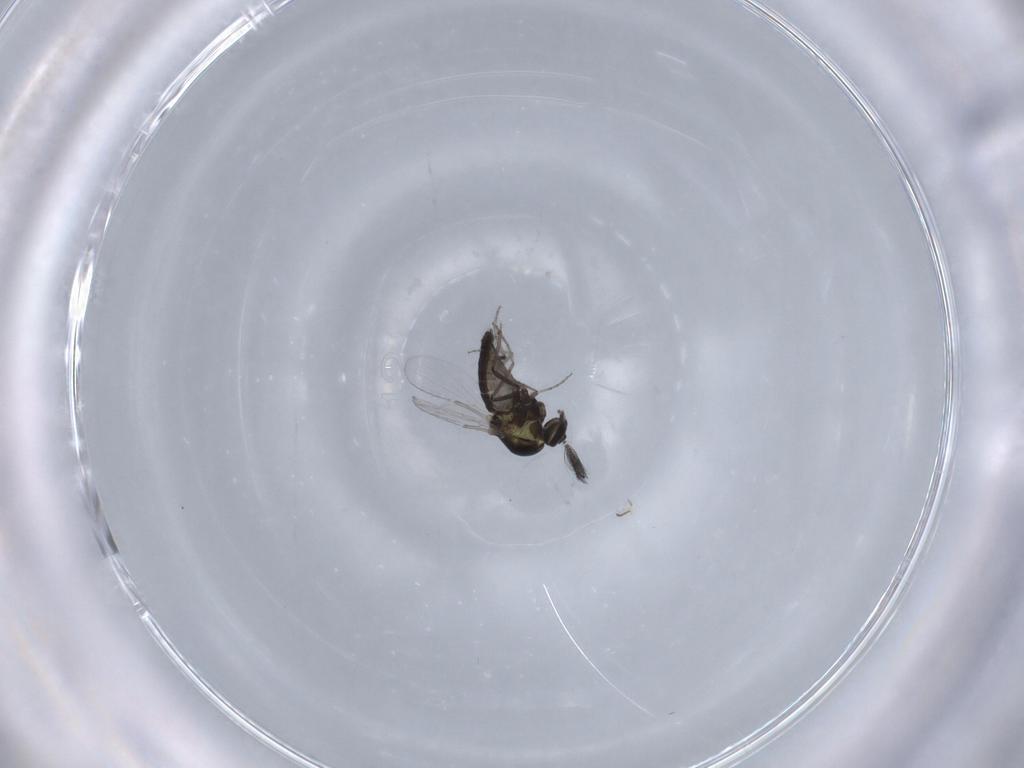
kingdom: Animalia
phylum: Arthropoda
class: Insecta
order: Diptera
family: Ceratopogonidae
